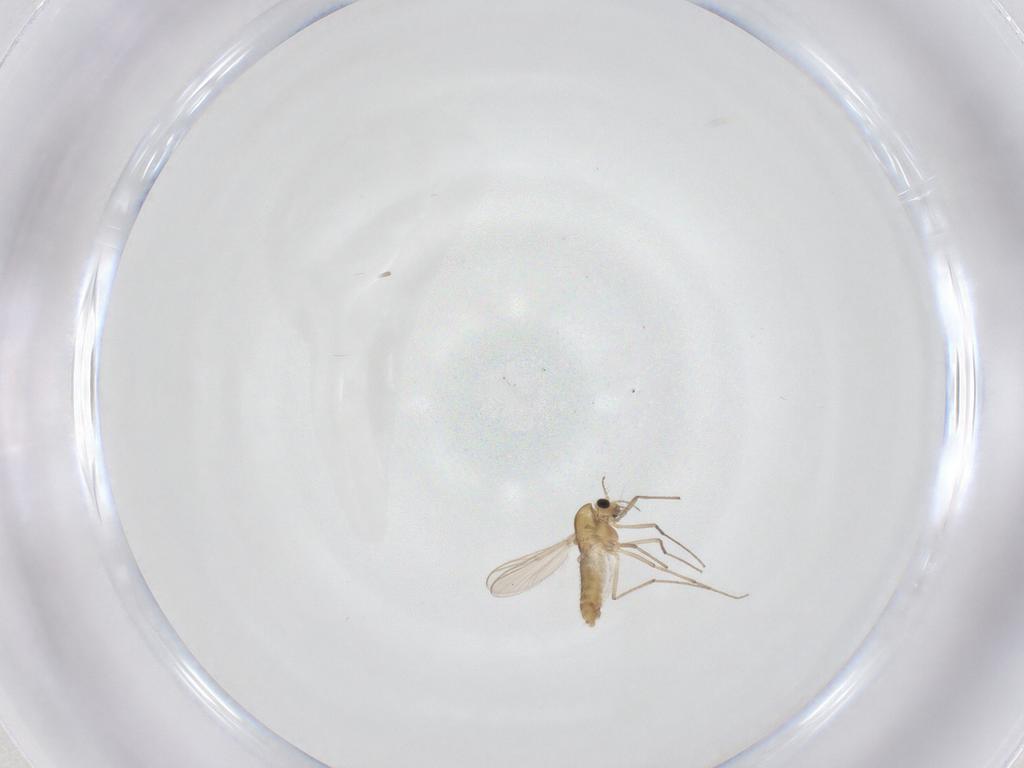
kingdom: Animalia
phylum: Arthropoda
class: Insecta
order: Diptera
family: Chironomidae
